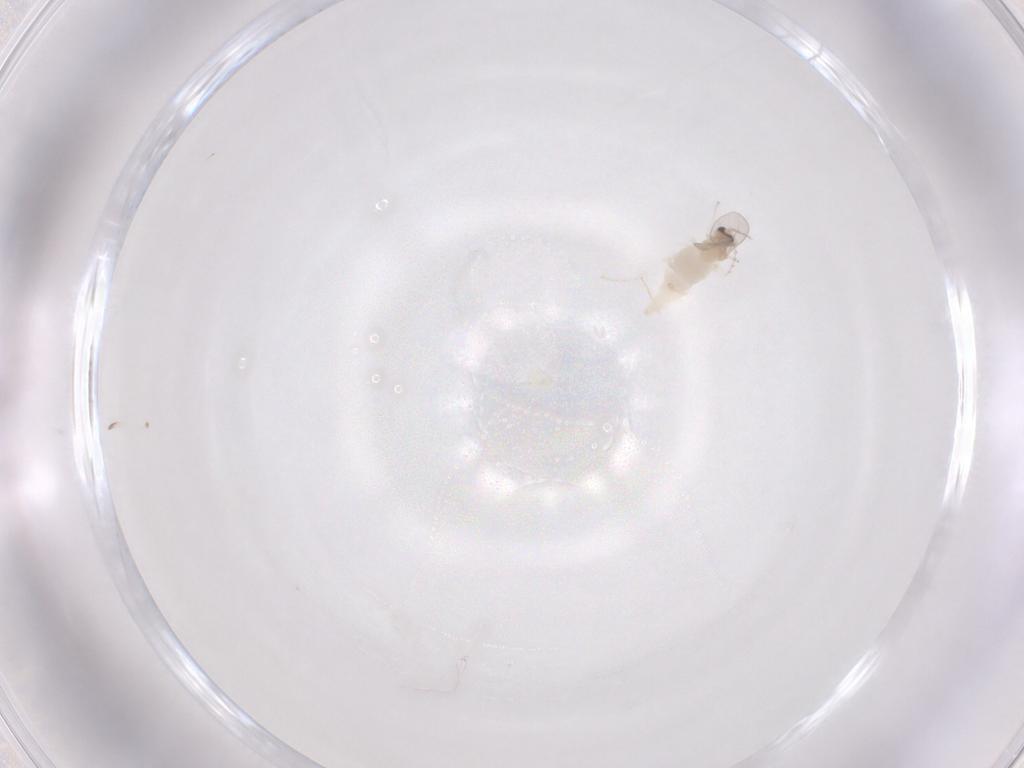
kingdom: Animalia
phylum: Arthropoda
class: Insecta
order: Diptera
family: Cecidomyiidae
